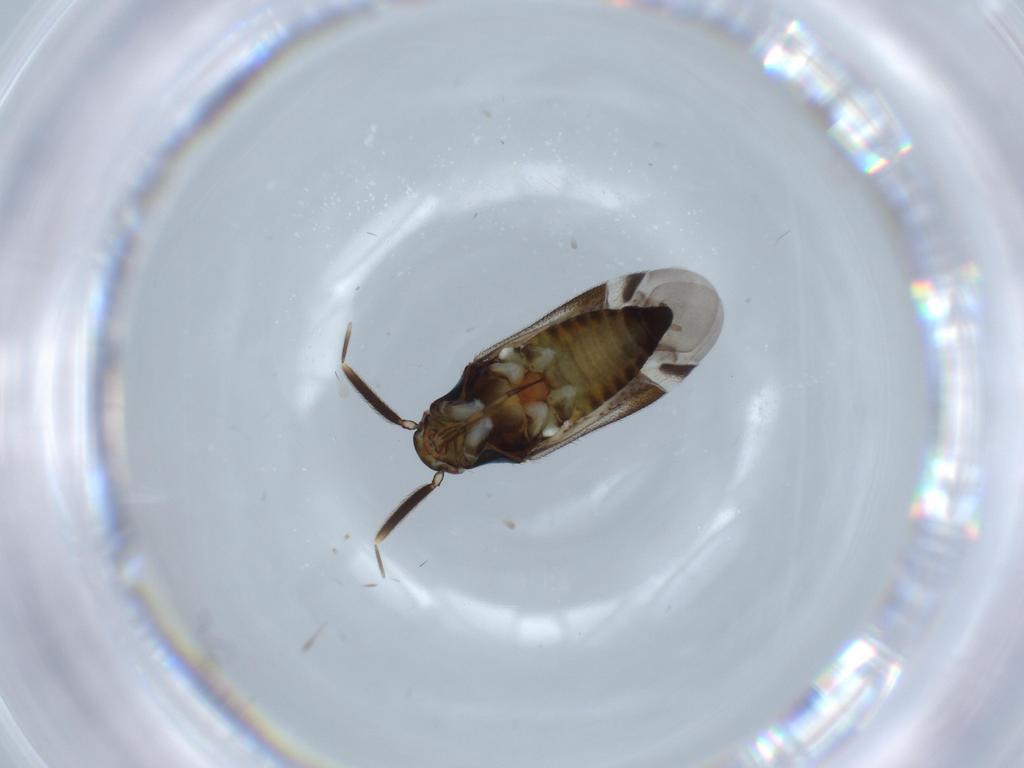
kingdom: Animalia
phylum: Arthropoda
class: Insecta
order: Hemiptera
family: Miridae
